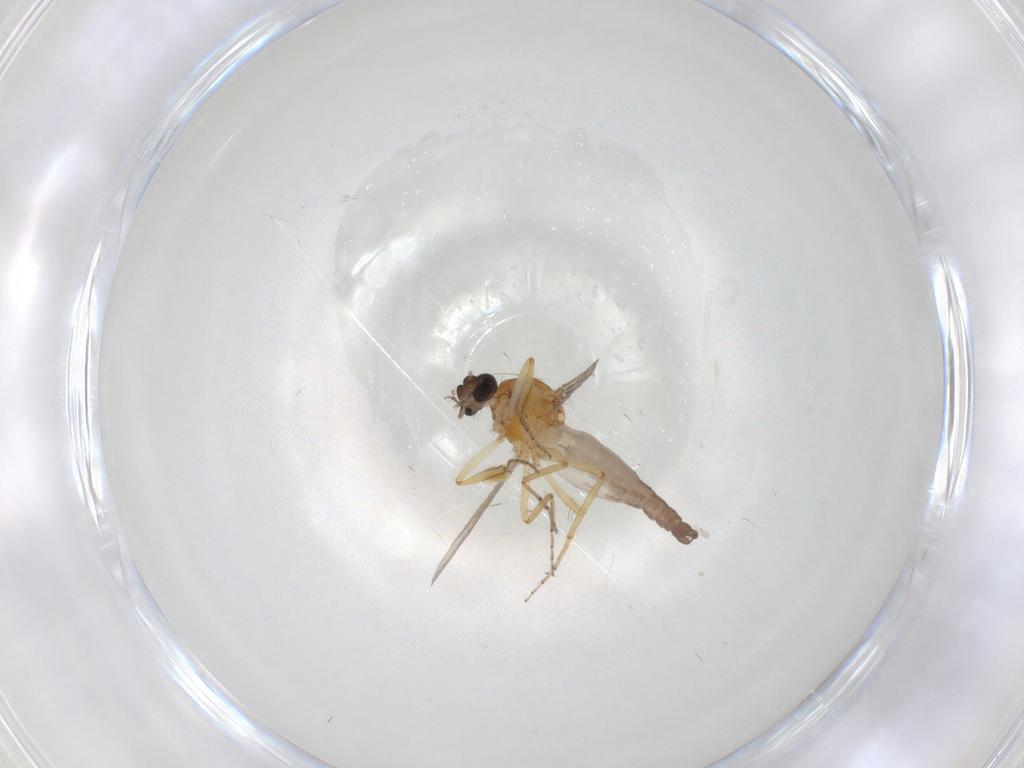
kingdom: Animalia
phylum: Arthropoda
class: Insecta
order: Diptera
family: Ceratopogonidae
